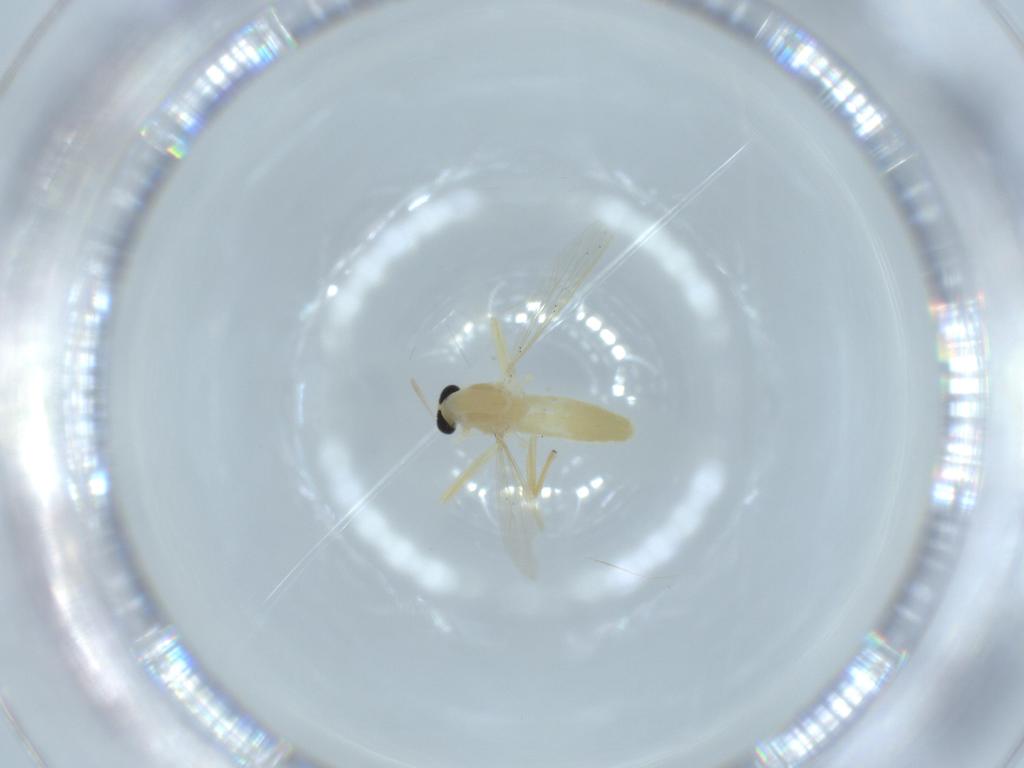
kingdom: Animalia
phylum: Arthropoda
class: Insecta
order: Diptera
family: Chironomidae
